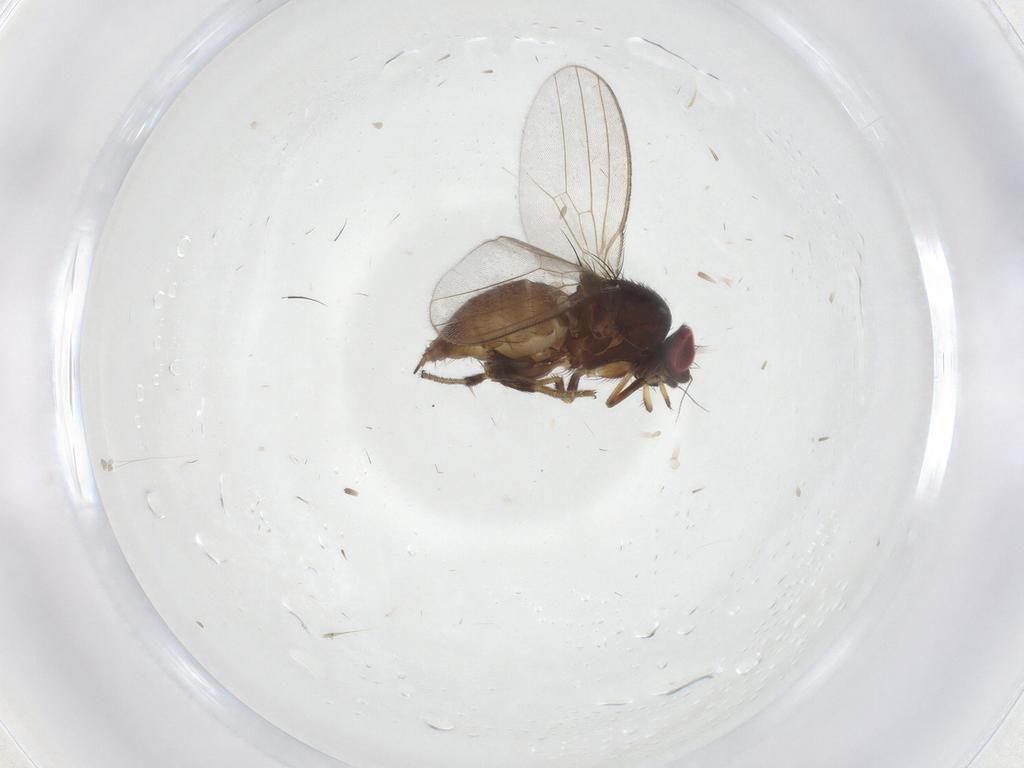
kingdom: Animalia
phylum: Arthropoda
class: Insecta
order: Diptera
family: Milichiidae
